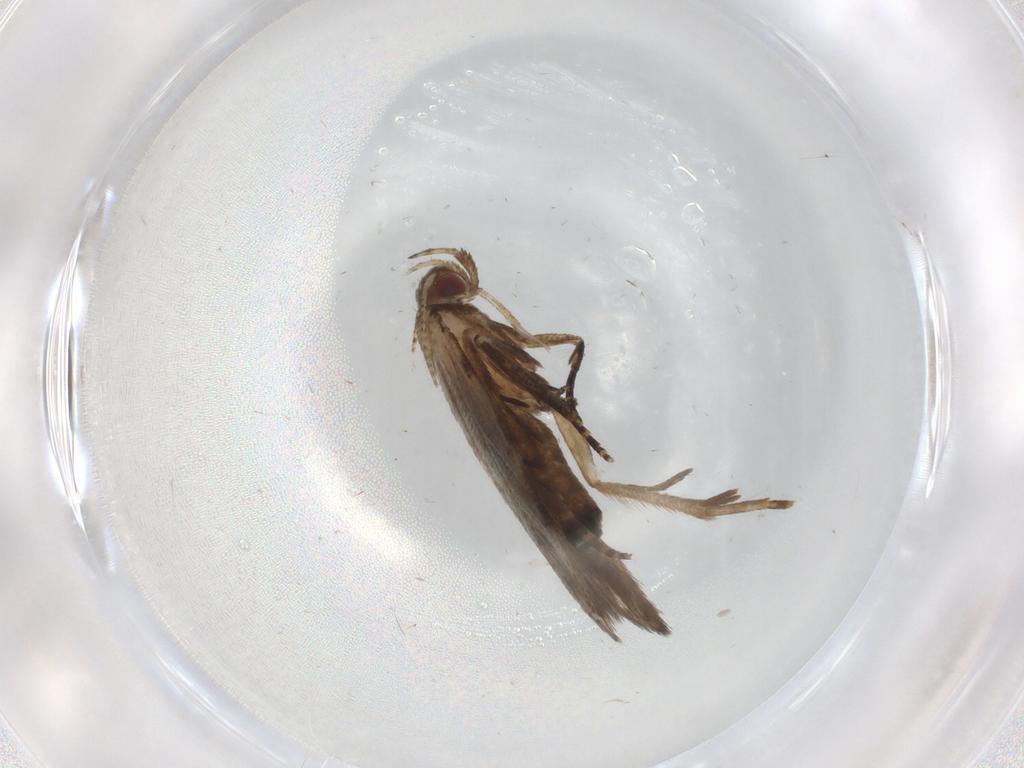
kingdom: Animalia
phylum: Arthropoda
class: Insecta
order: Lepidoptera
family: Gelechiidae
